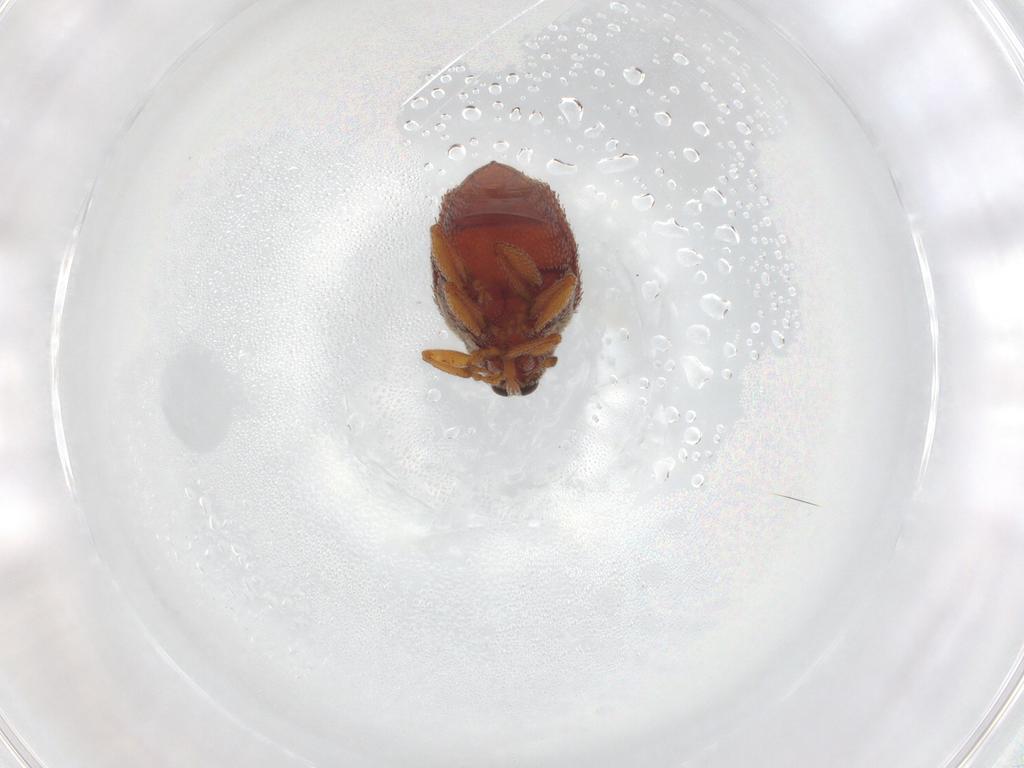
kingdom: Animalia
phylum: Arthropoda
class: Insecta
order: Coleoptera
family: Curculionidae
